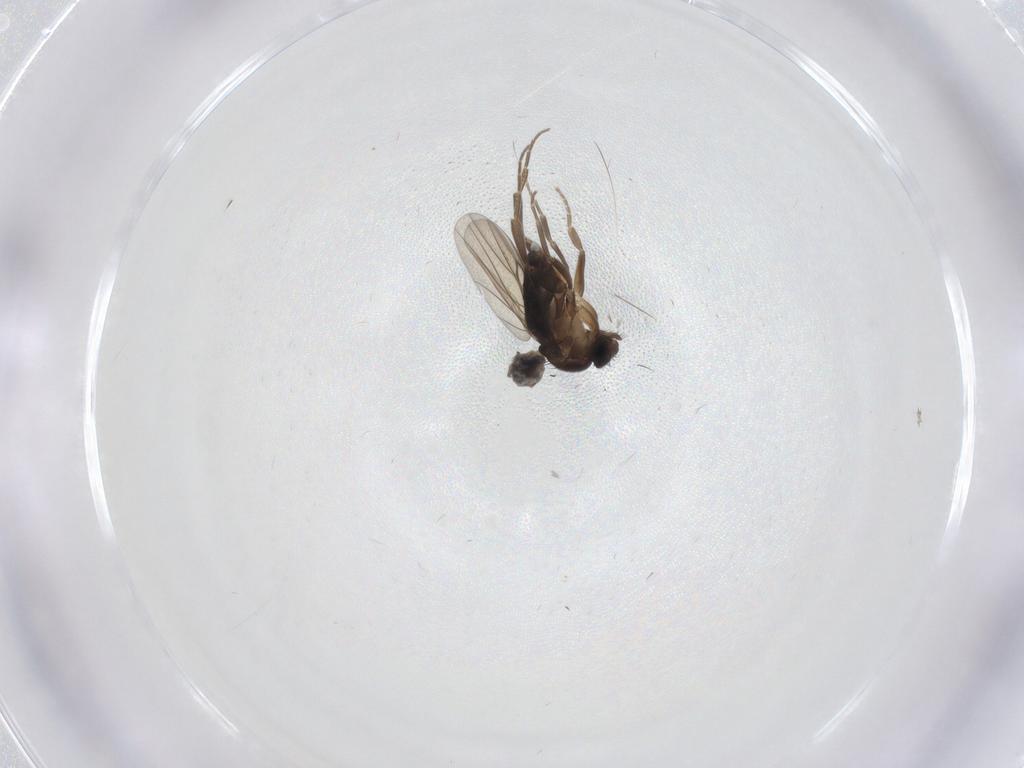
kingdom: Animalia
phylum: Arthropoda
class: Insecta
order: Diptera
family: Phoridae
